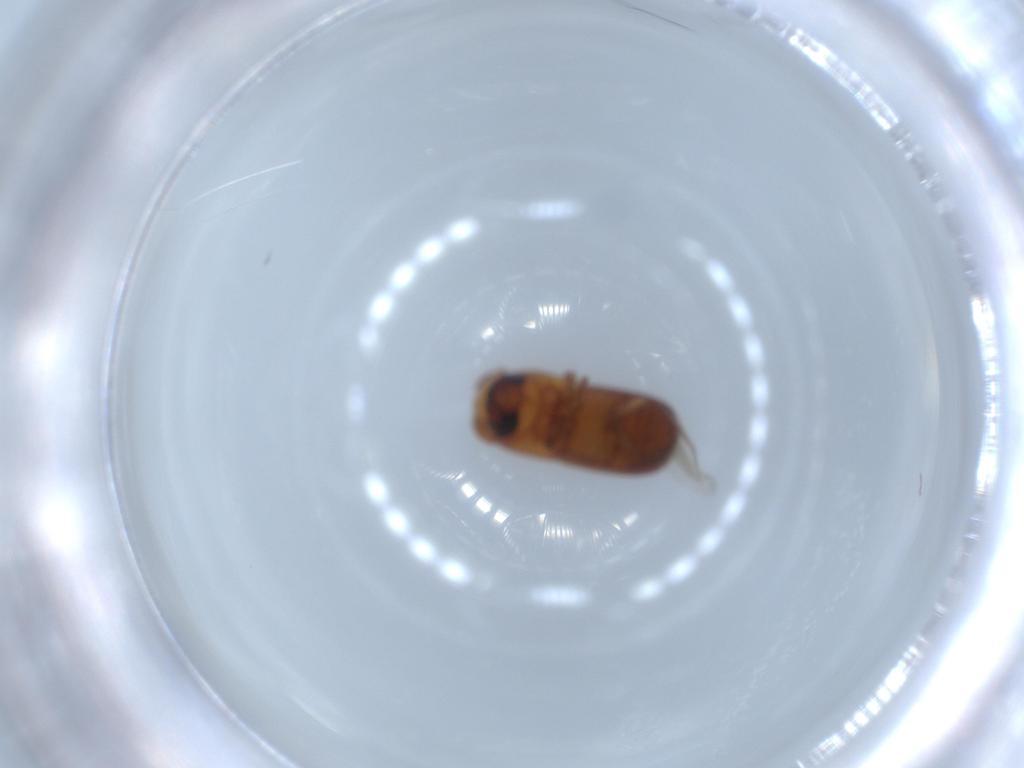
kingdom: Animalia
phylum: Arthropoda
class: Insecta
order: Coleoptera
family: Curculionidae
